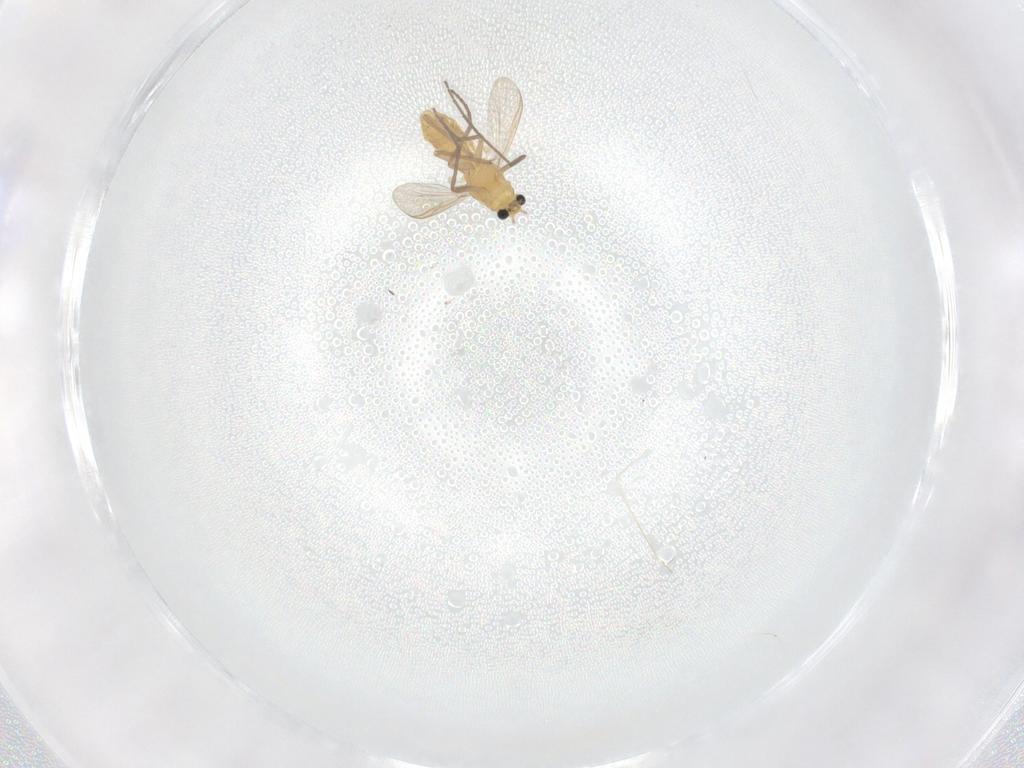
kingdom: Animalia
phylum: Arthropoda
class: Insecta
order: Diptera
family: Chironomidae
